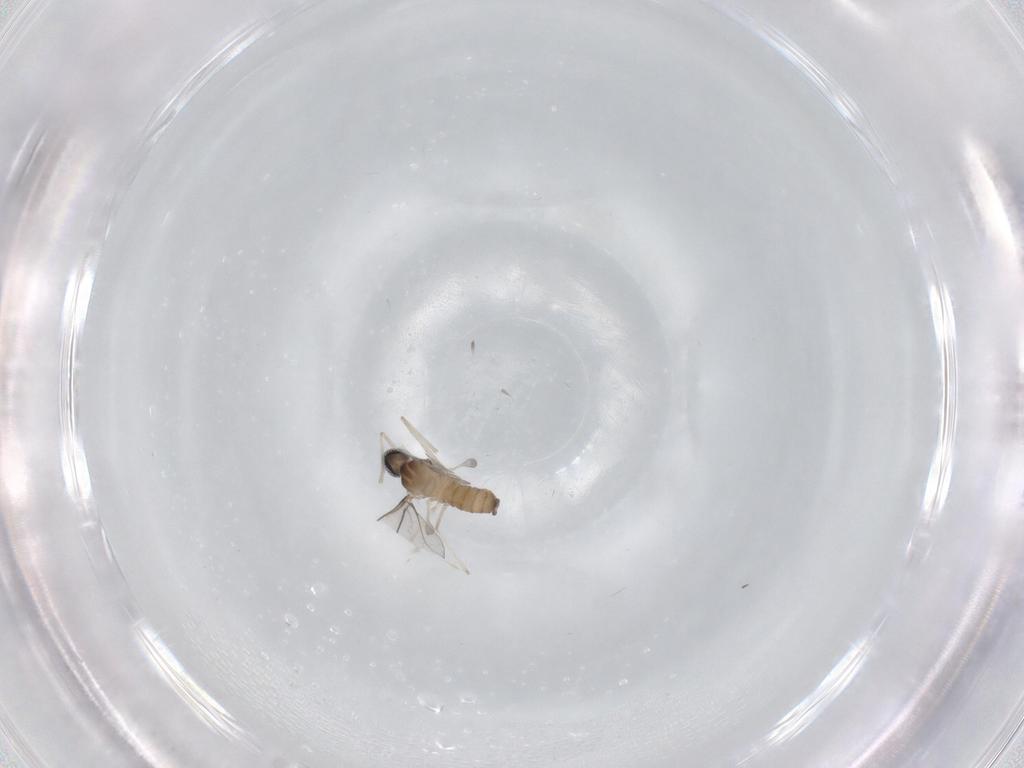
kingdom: Animalia
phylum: Arthropoda
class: Insecta
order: Diptera
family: Cecidomyiidae
